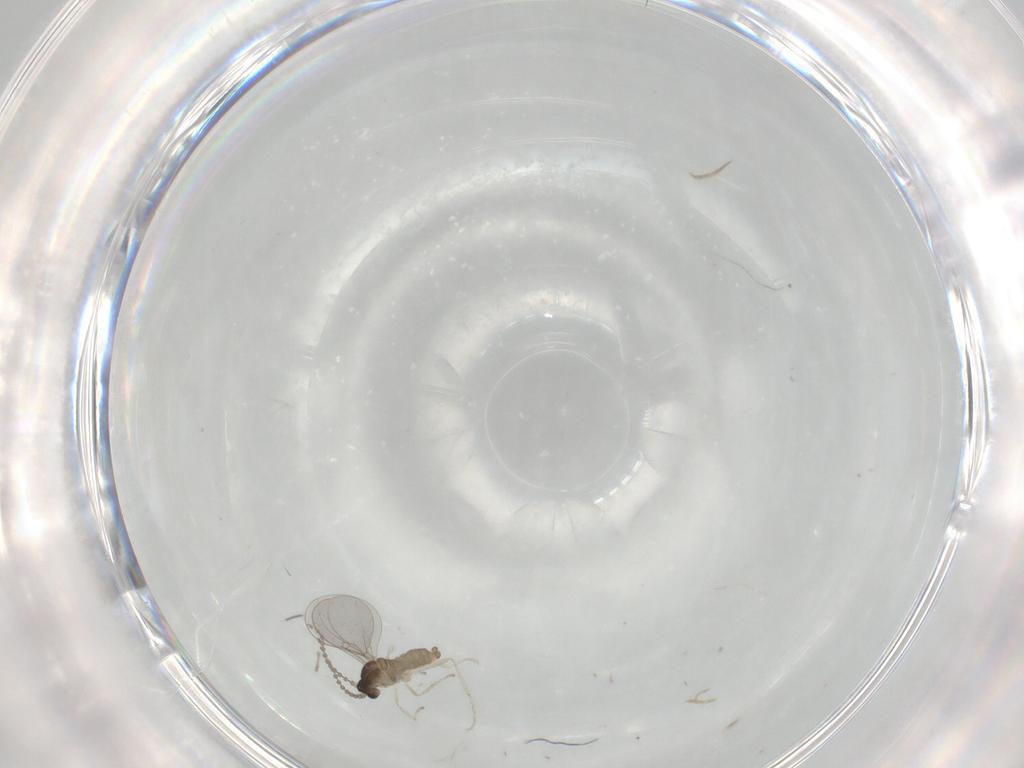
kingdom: Animalia
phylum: Arthropoda
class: Insecta
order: Diptera
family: Cecidomyiidae
